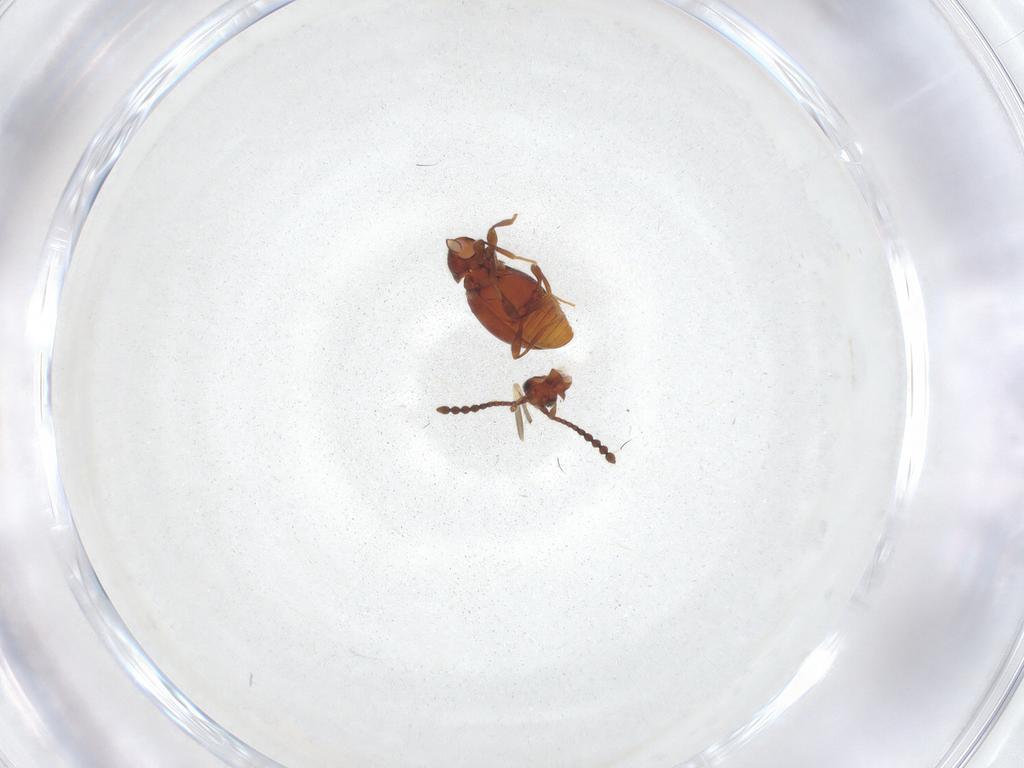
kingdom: Animalia
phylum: Arthropoda
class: Insecta
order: Coleoptera
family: Staphylinidae
